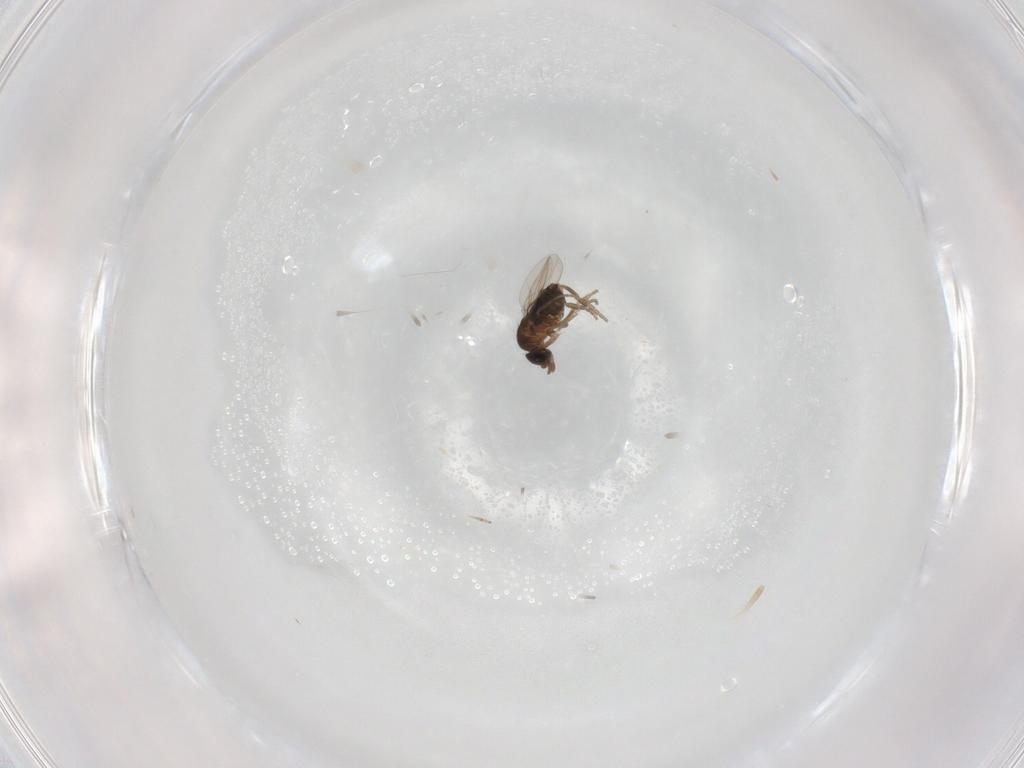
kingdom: Animalia
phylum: Arthropoda
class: Insecta
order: Diptera
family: Phoridae
